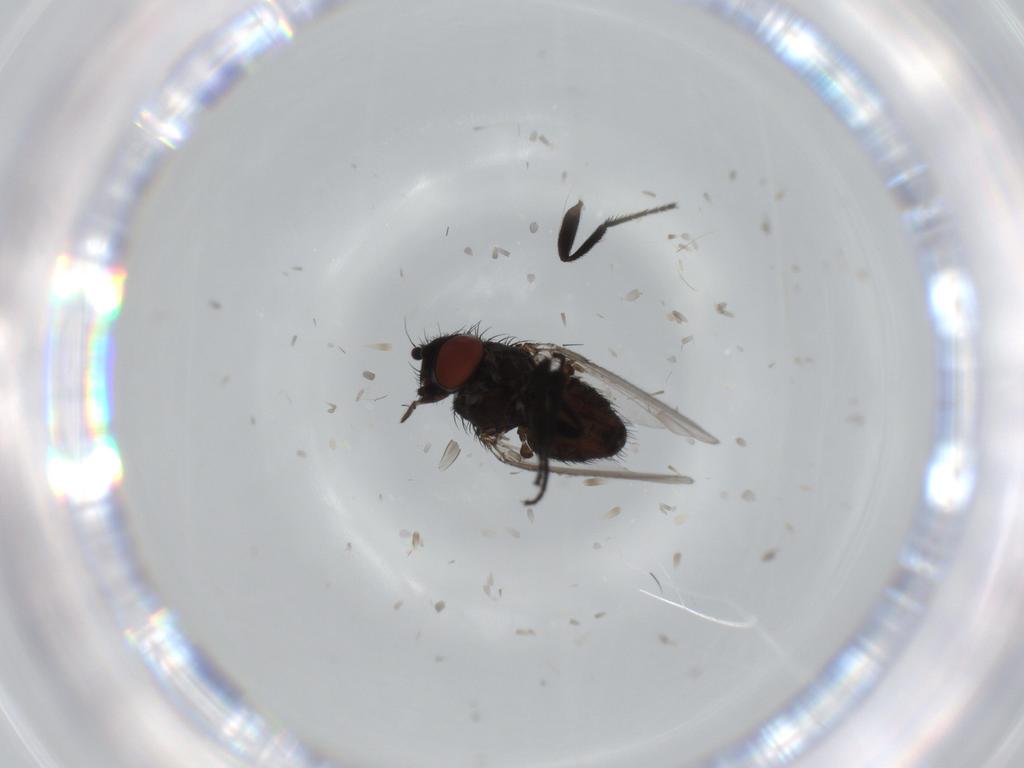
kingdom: Animalia
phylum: Arthropoda
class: Insecta
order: Diptera
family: Milichiidae
